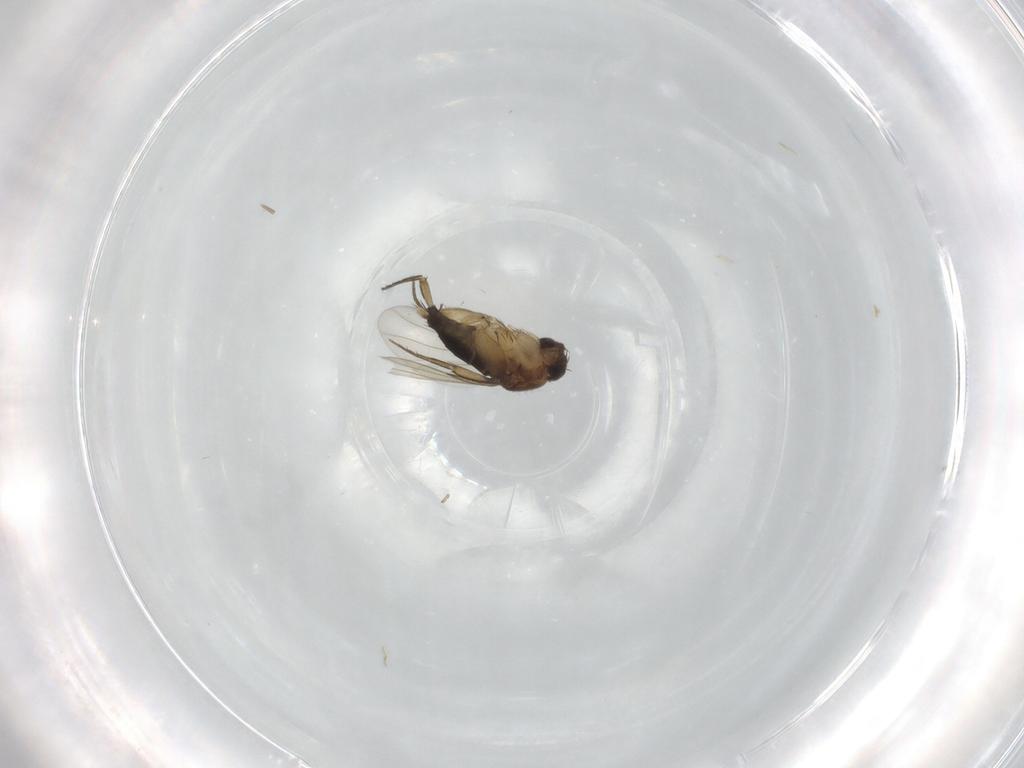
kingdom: Animalia
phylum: Arthropoda
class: Insecta
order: Diptera
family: Phoridae
